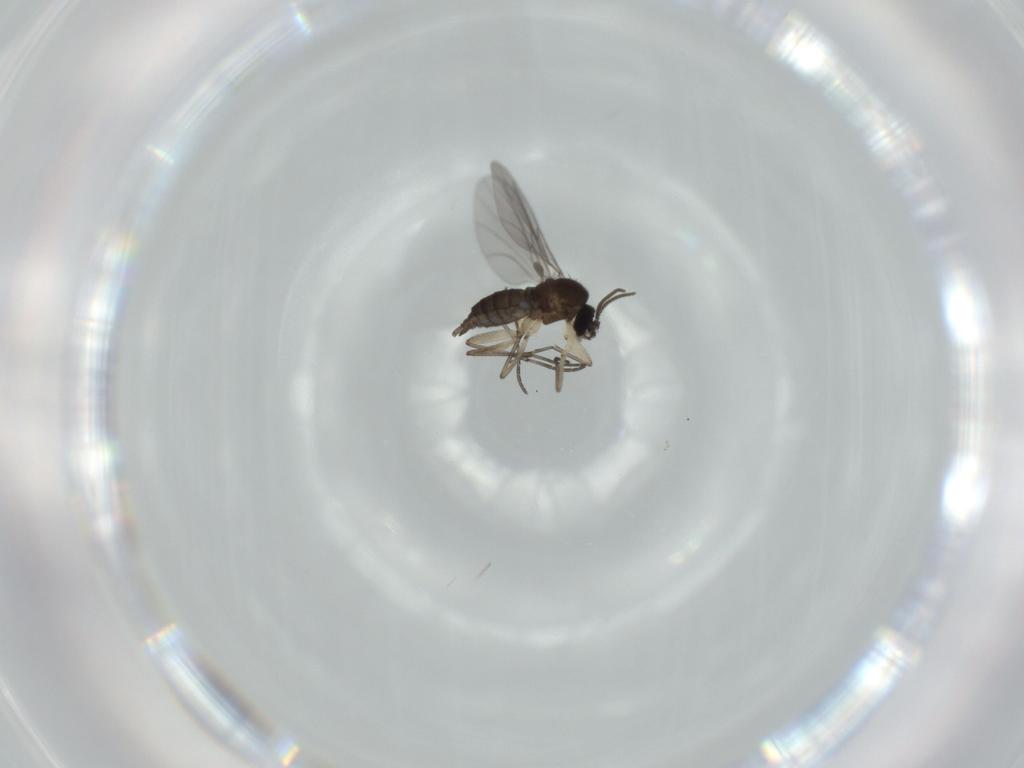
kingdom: Animalia
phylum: Arthropoda
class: Insecta
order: Diptera
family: Sciaridae
